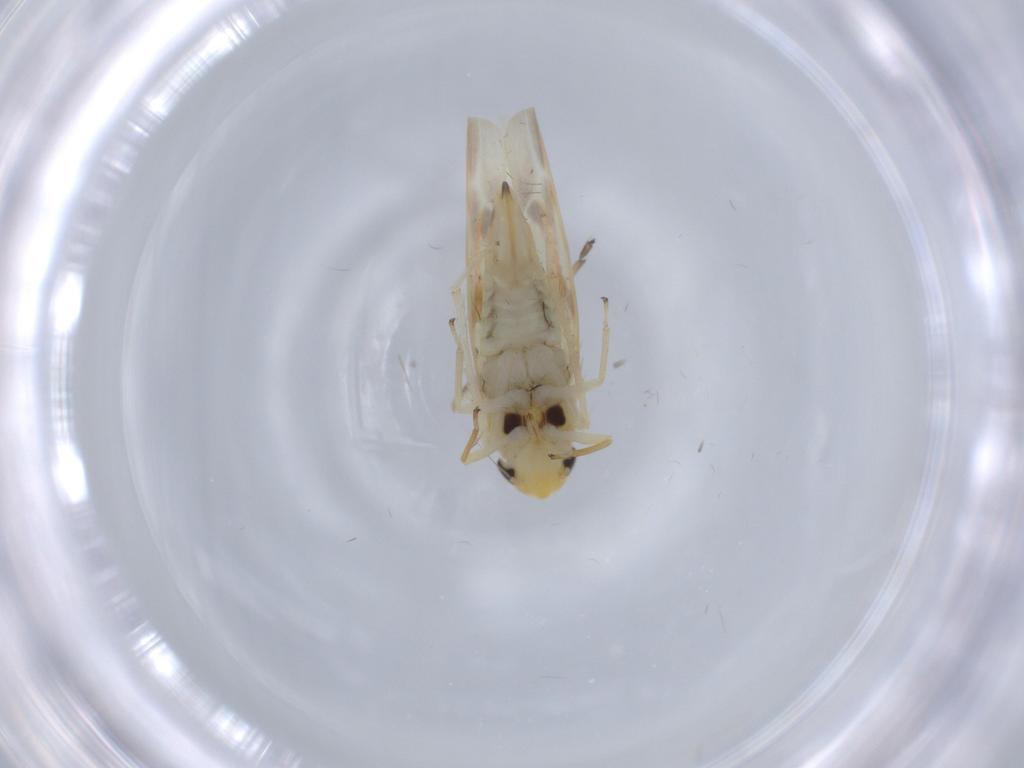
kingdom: Animalia
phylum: Arthropoda
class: Insecta
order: Hemiptera
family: Cicadellidae
